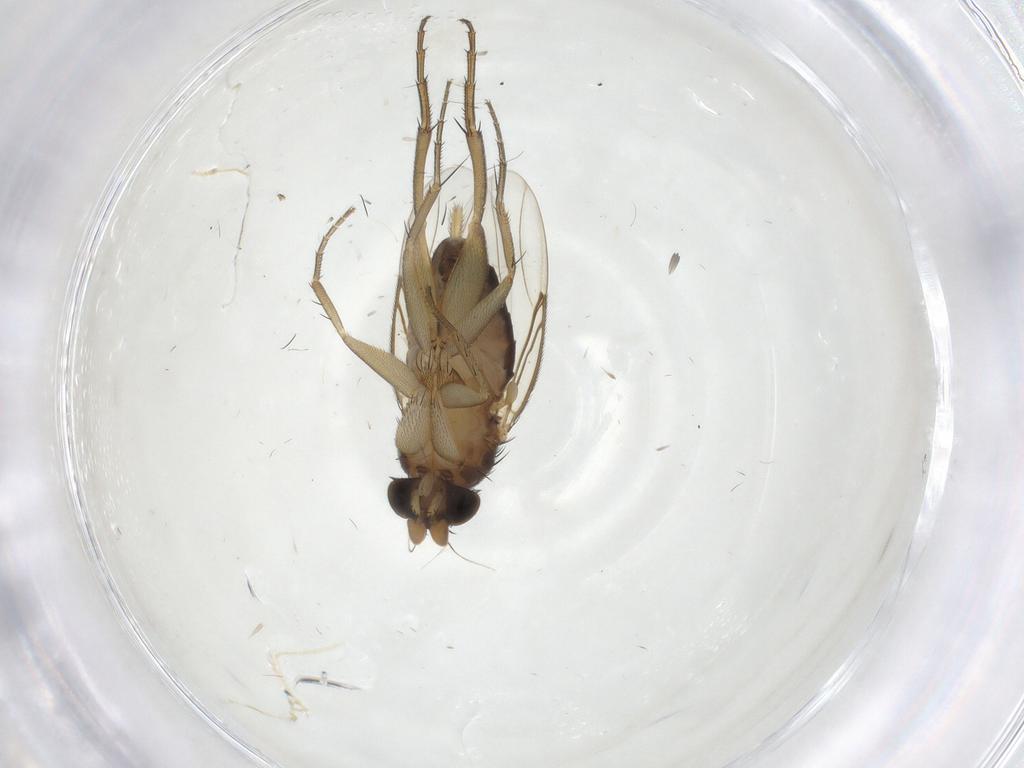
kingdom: Animalia
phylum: Arthropoda
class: Insecta
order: Diptera
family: Phoridae
